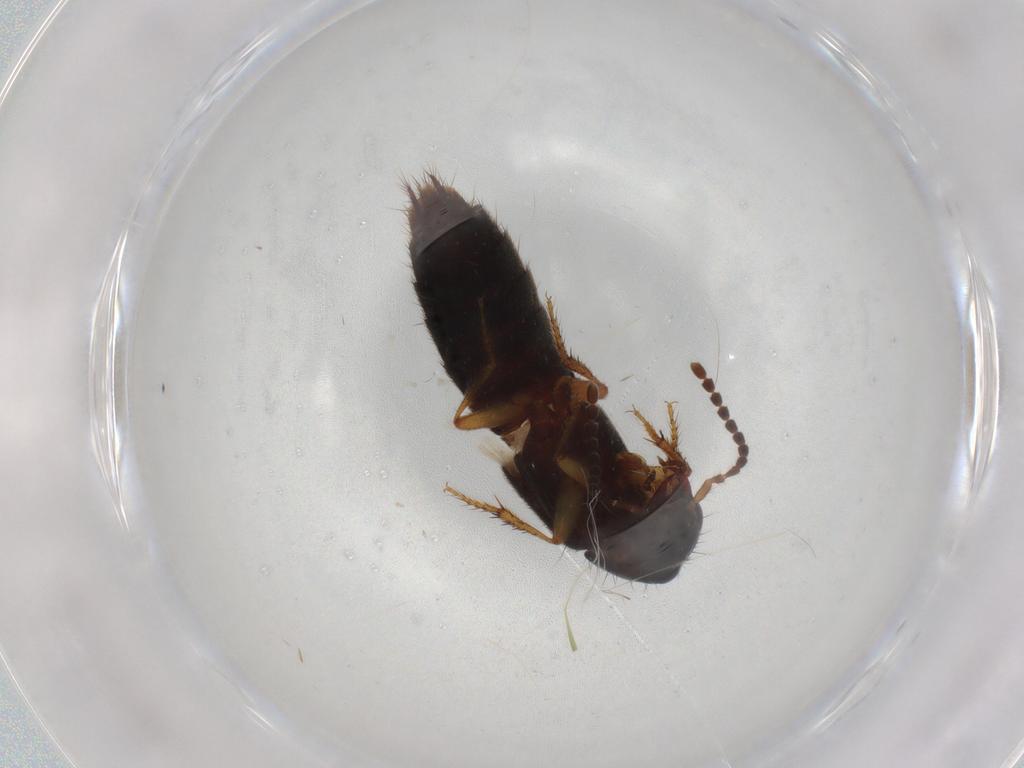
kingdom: Animalia
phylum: Arthropoda
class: Insecta
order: Coleoptera
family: Staphylinidae
